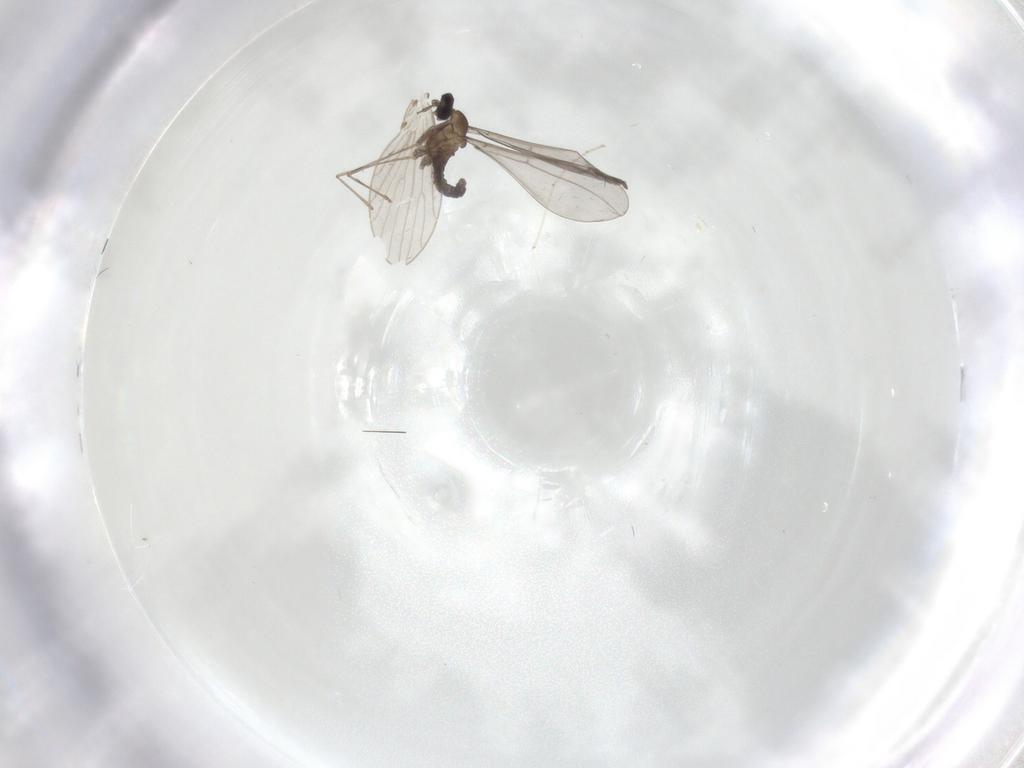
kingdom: Animalia
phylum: Arthropoda
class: Insecta
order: Diptera
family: Cecidomyiidae
